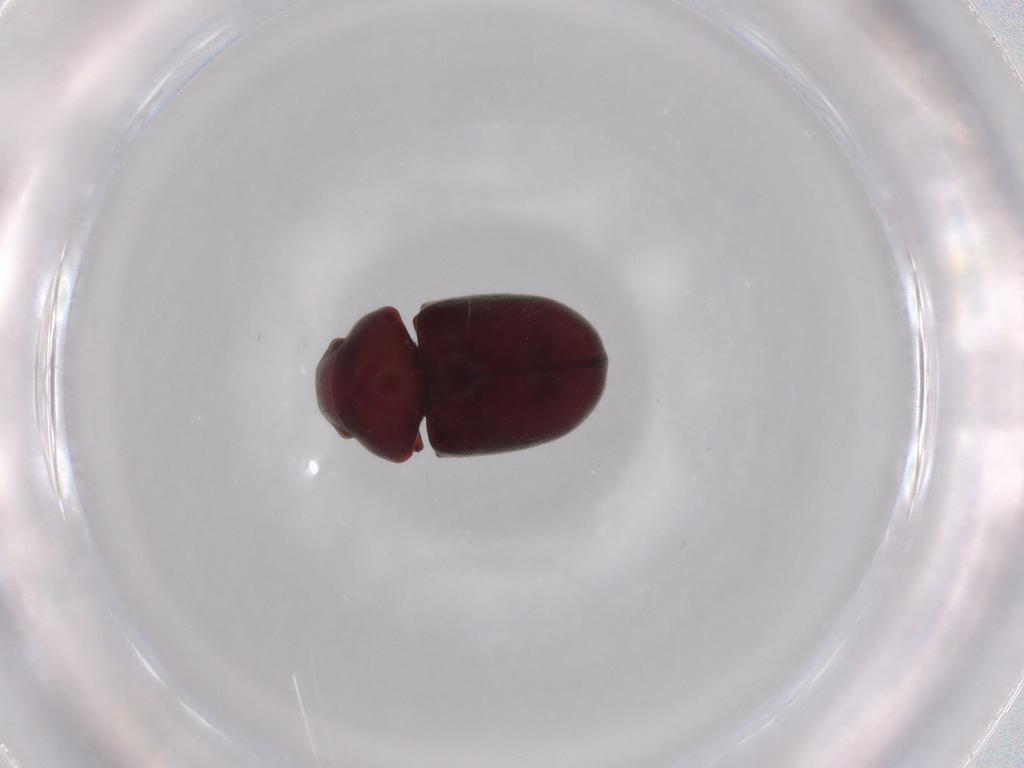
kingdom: Animalia
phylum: Arthropoda
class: Insecta
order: Coleoptera
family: Ptinidae
